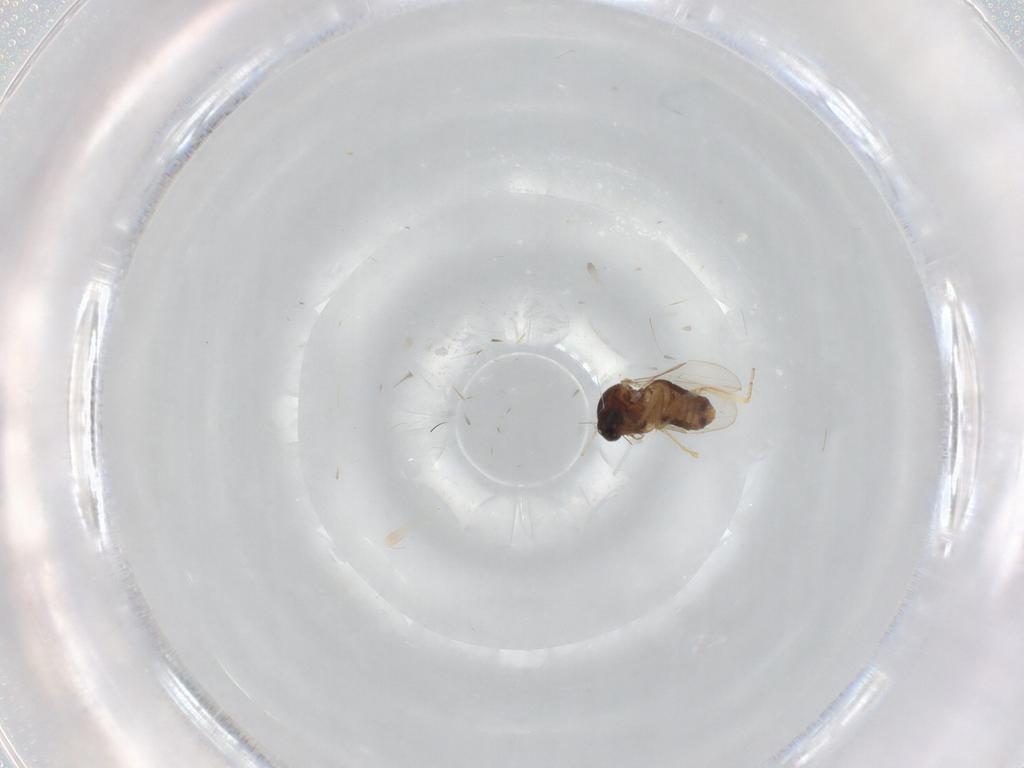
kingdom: Animalia
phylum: Arthropoda
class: Insecta
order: Diptera
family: Ceratopogonidae
